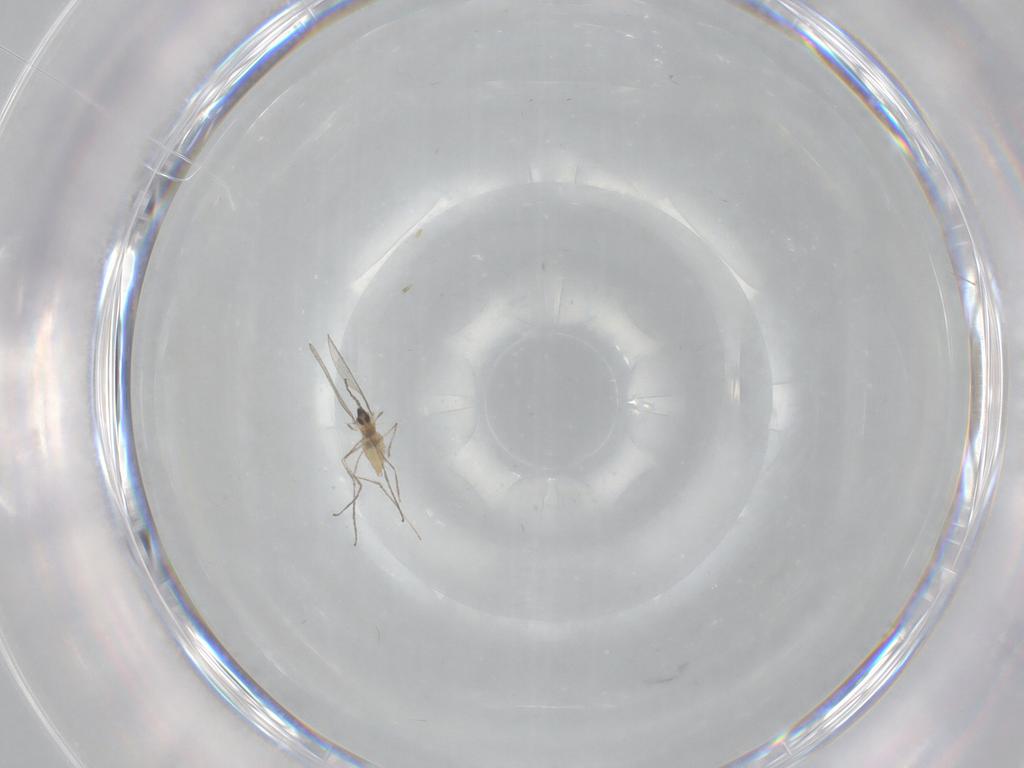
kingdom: Animalia
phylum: Arthropoda
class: Insecta
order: Diptera
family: Cecidomyiidae
